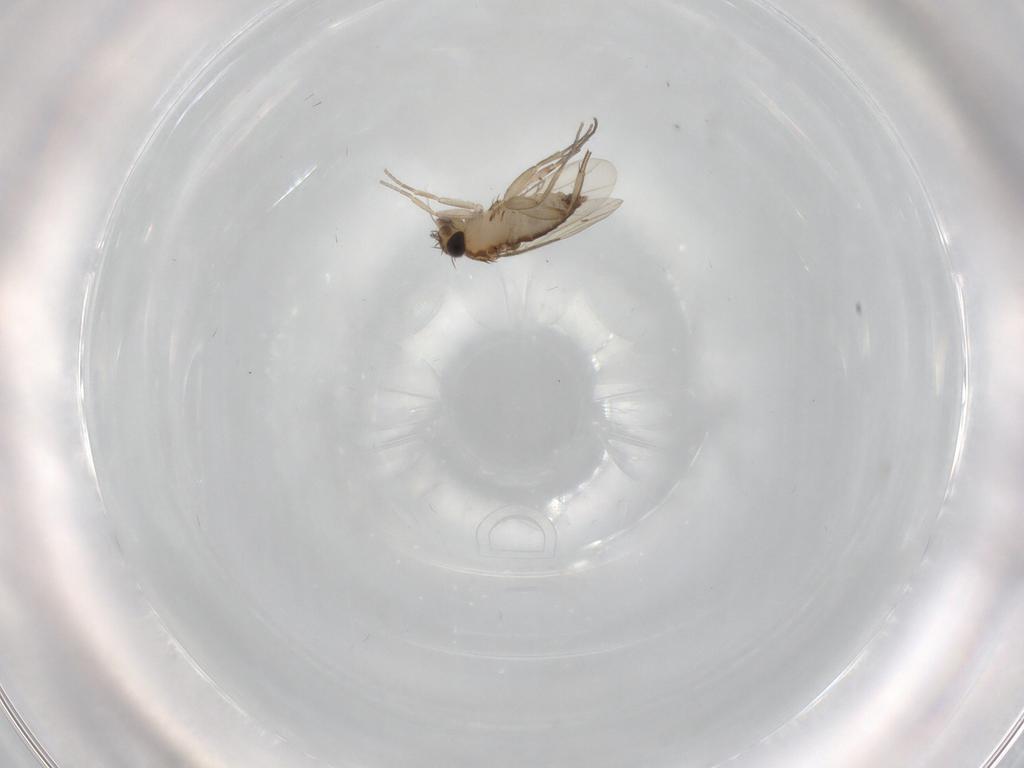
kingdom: Animalia
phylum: Arthropoda
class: Insecta
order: Diptera
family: Phoridae
